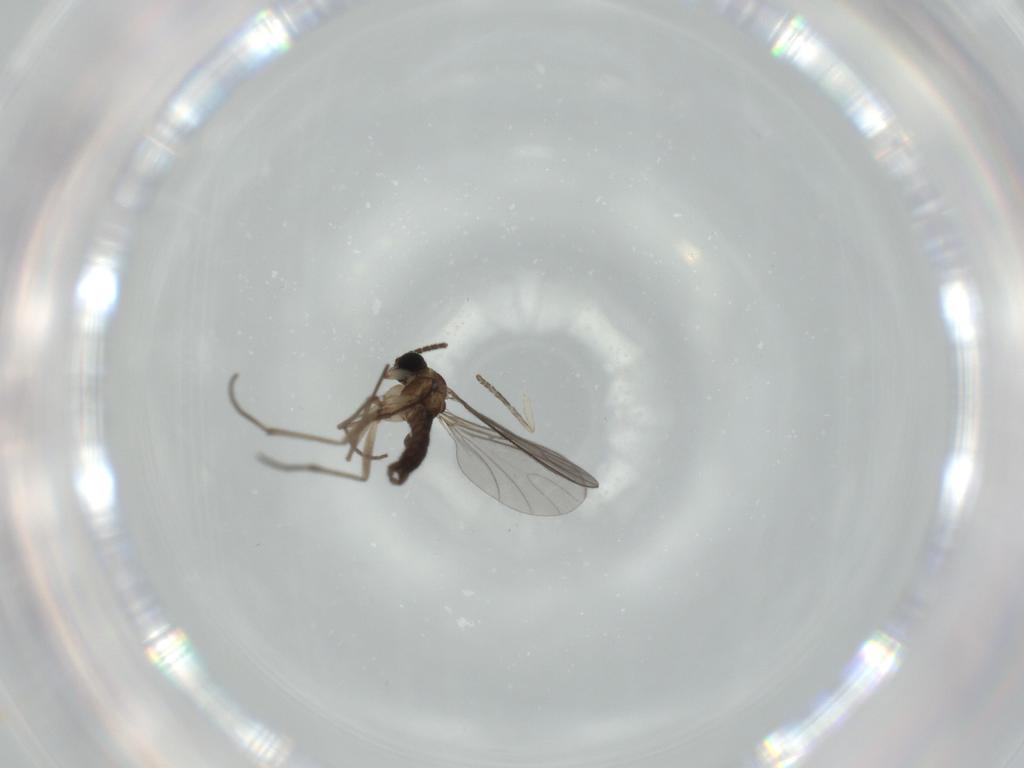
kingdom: Animalia
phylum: Arthropoda
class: Insecta
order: Diptera
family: Sciaridae
